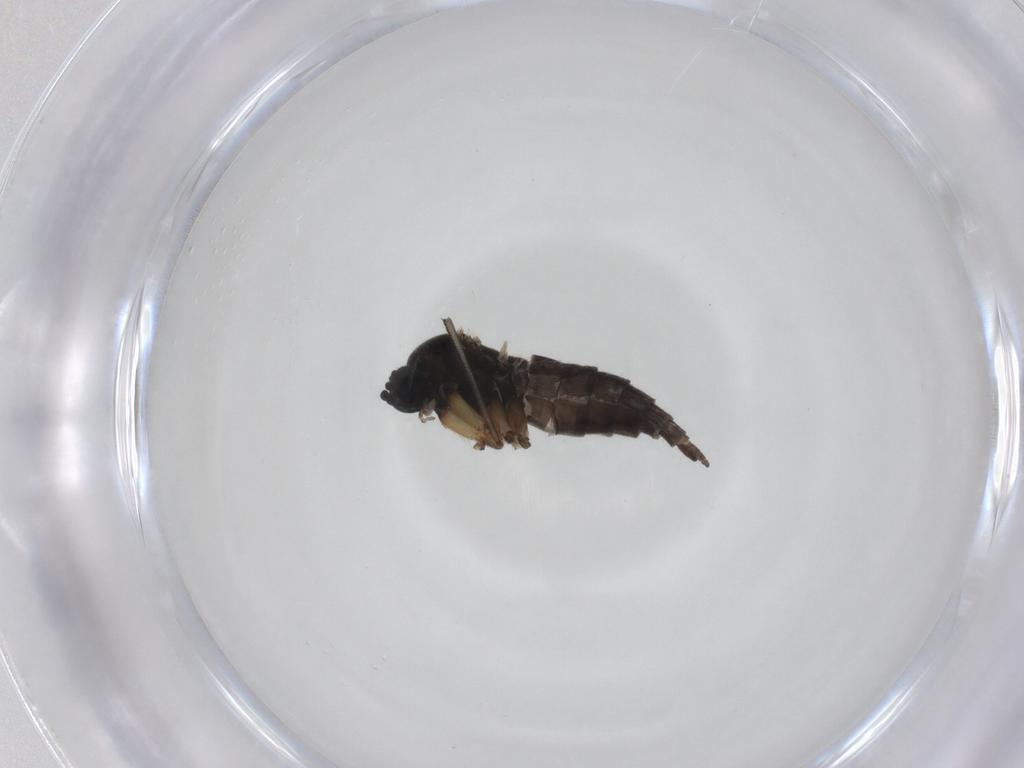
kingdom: Animalia
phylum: Arthropoda
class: Insecta
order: Diptera
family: Sciaridae
